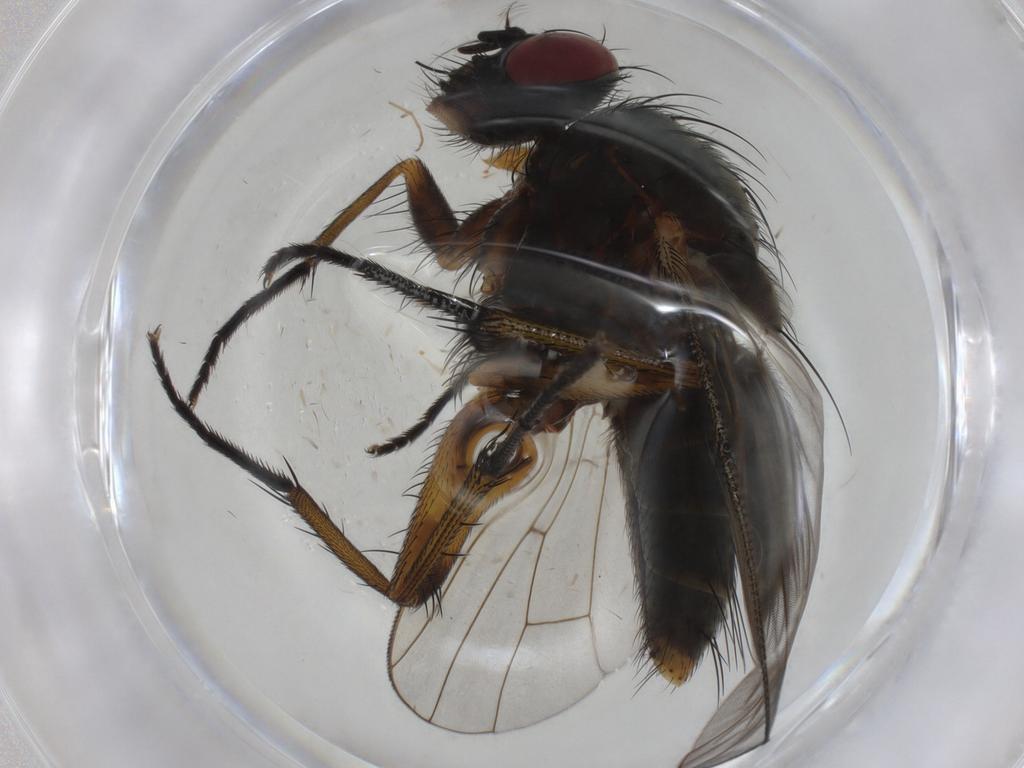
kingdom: Animalia
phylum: Arthropoda
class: Insecta
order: Diptera
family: Muscidae
